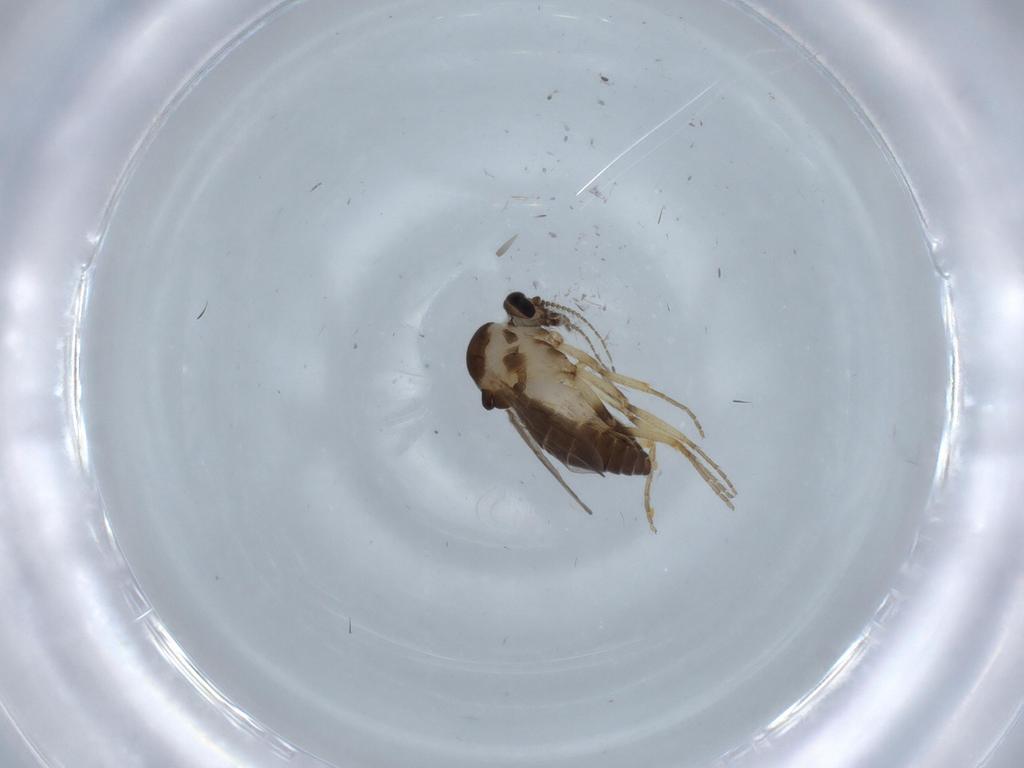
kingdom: Animalia
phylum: Arthropoda
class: Insecta
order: Diptera
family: Ceratopogonidae
